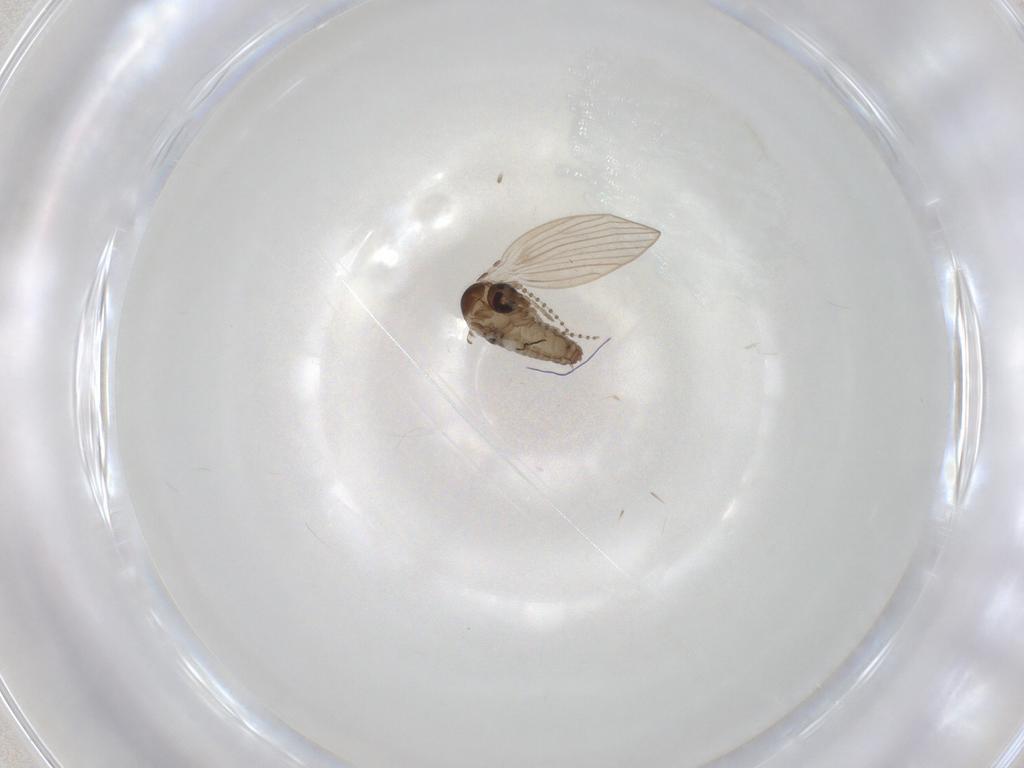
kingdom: Animalia
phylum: Arthropoda
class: Insecta
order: Diptera
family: Psychodidae
